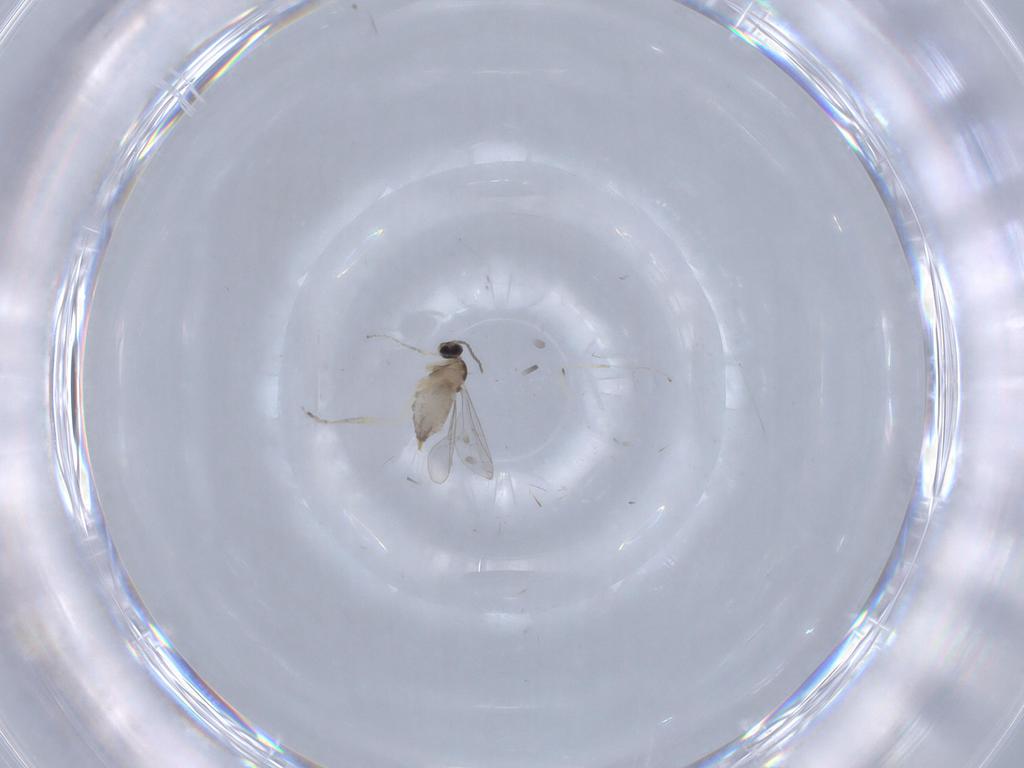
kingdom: Animalia
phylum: Arthropoda
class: Insecta
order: Diptera
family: Cecidomyiidae
